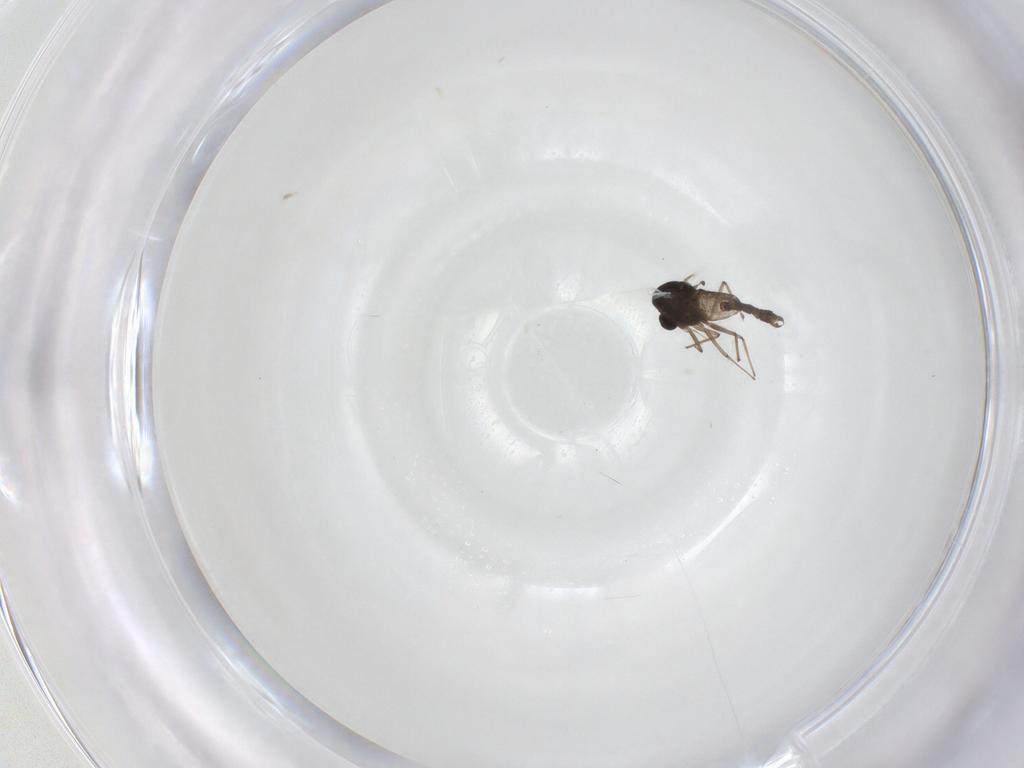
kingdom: Animalia
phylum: Arthropoda
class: Insecta
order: Diptera
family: Chironomidae
